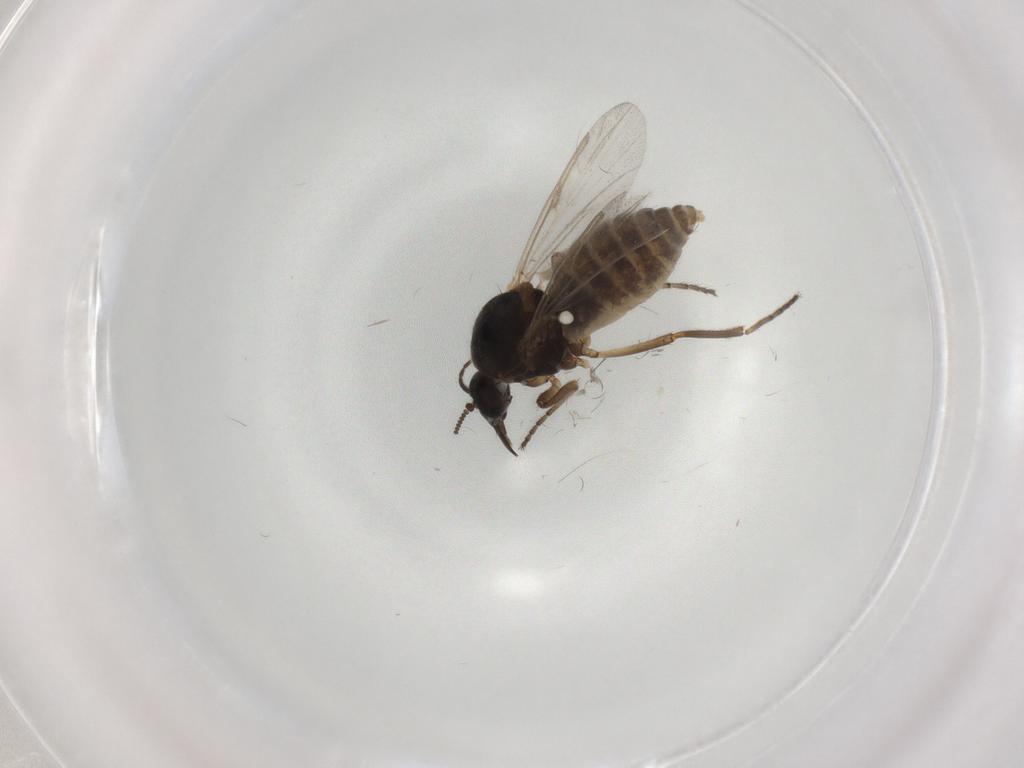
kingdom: Animalia
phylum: Arthropoda
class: Insecta
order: Diptera
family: Ceratopogonidae
